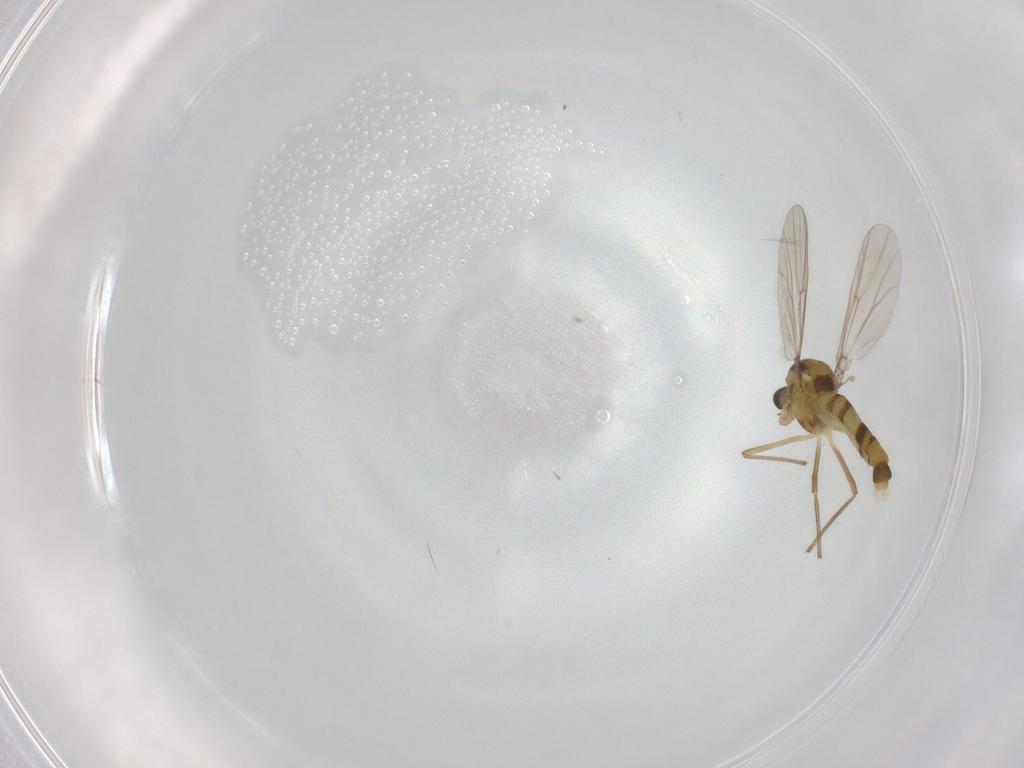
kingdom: Animalia
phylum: Arthropoda
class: Insecta
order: Diptera
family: Chironomidae
